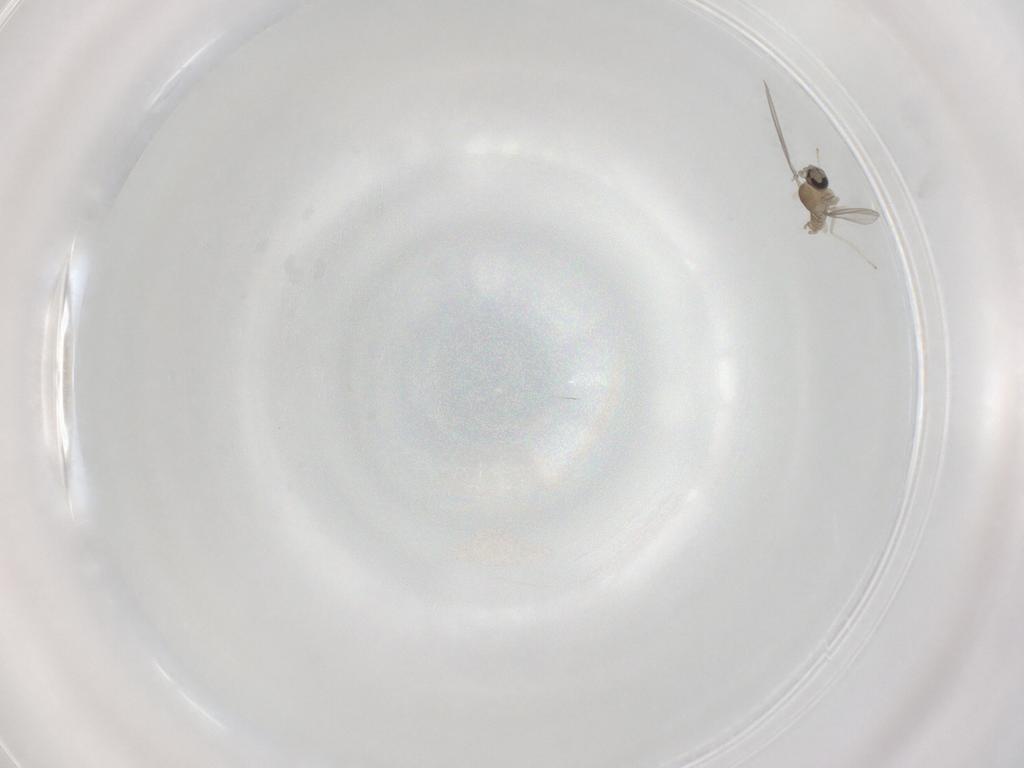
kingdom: Animalia
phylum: Arthropoda
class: Insecta
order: Diptera
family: Cecidomyiidae
